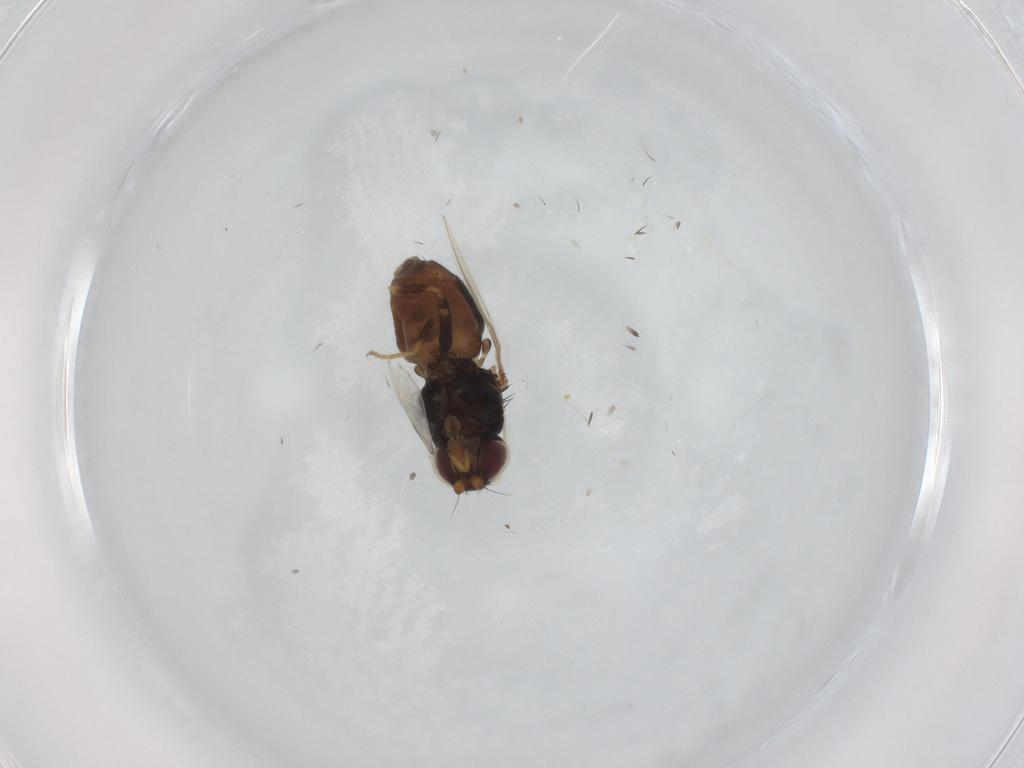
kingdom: Animalia
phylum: Arthropoda
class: Insecta
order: Diptera
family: Chloropidae
